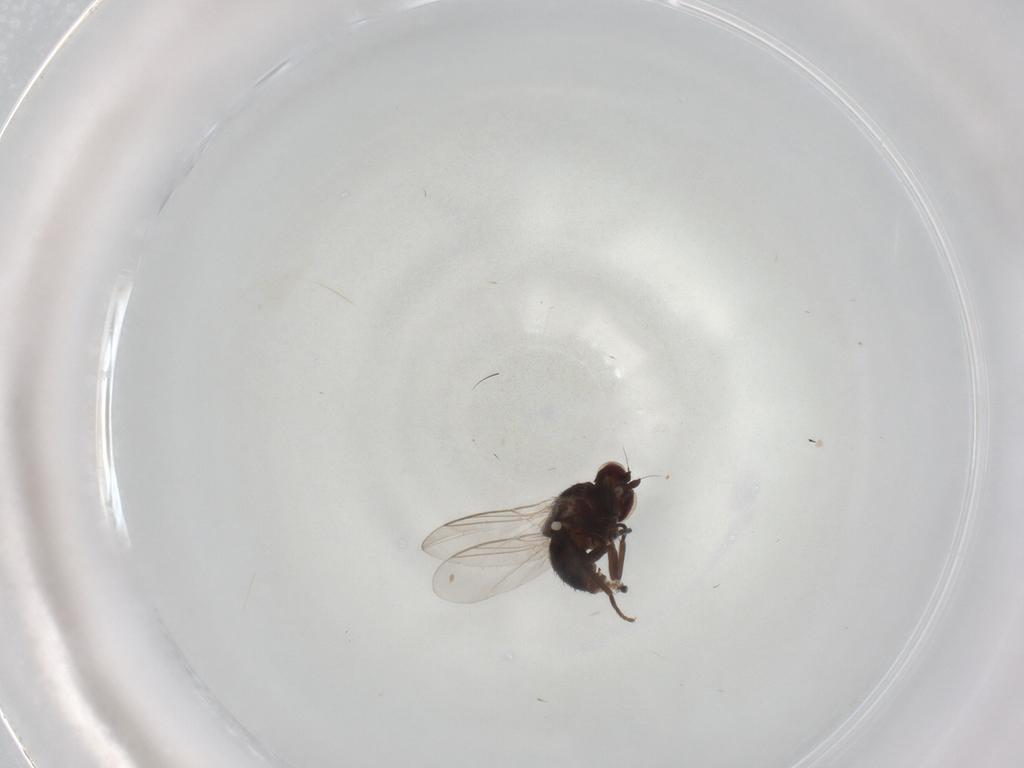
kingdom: Animalia
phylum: Arthropoda
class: Insecta
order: Diptera
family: Agromyzidae
